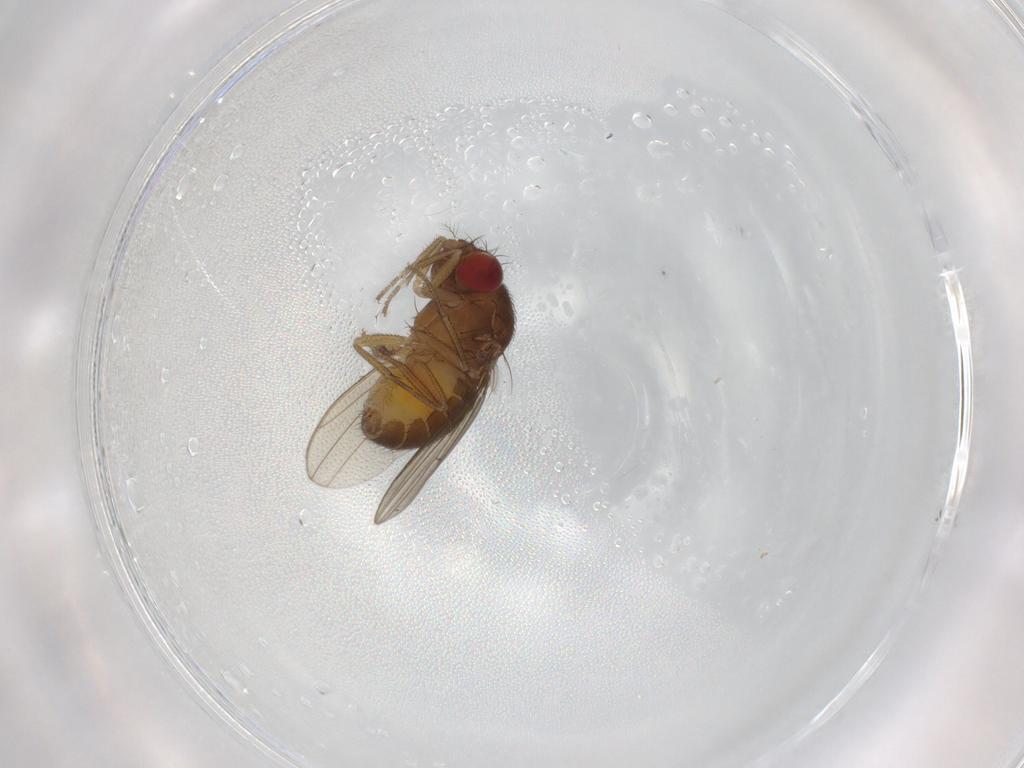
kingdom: Animalia
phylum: Arthropoda
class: Insecta
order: Diptera
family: Drosophilidae
